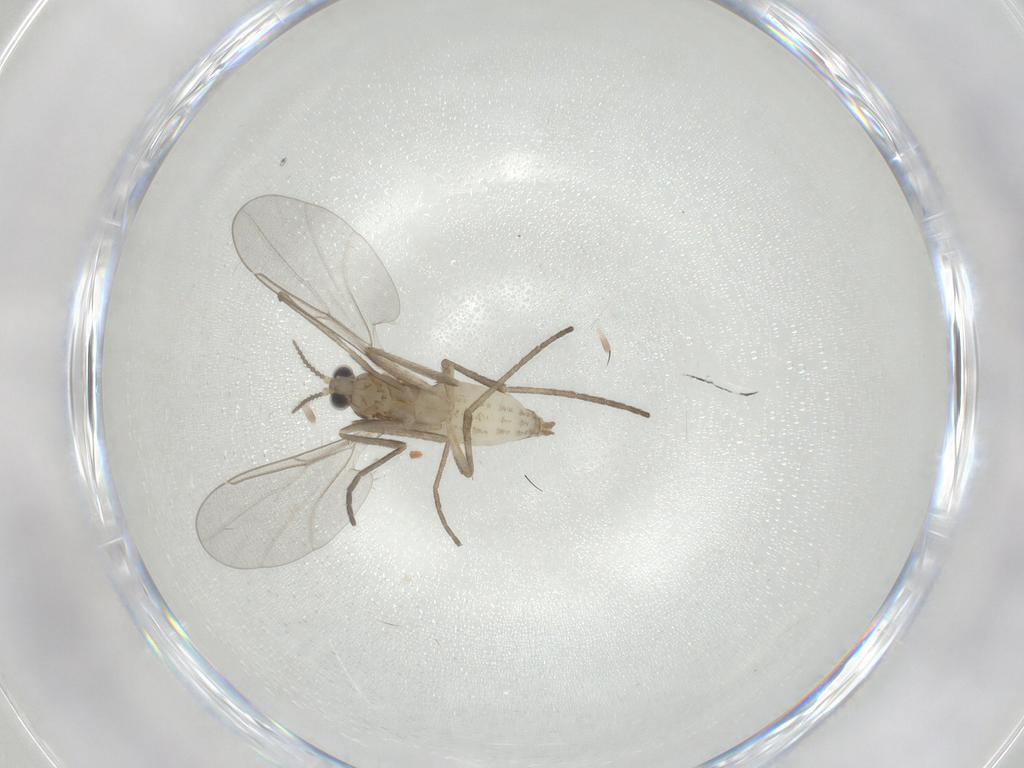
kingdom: Animalia
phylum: Arthropoda
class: Insecta
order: Diptera
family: Cecidomyiidae
